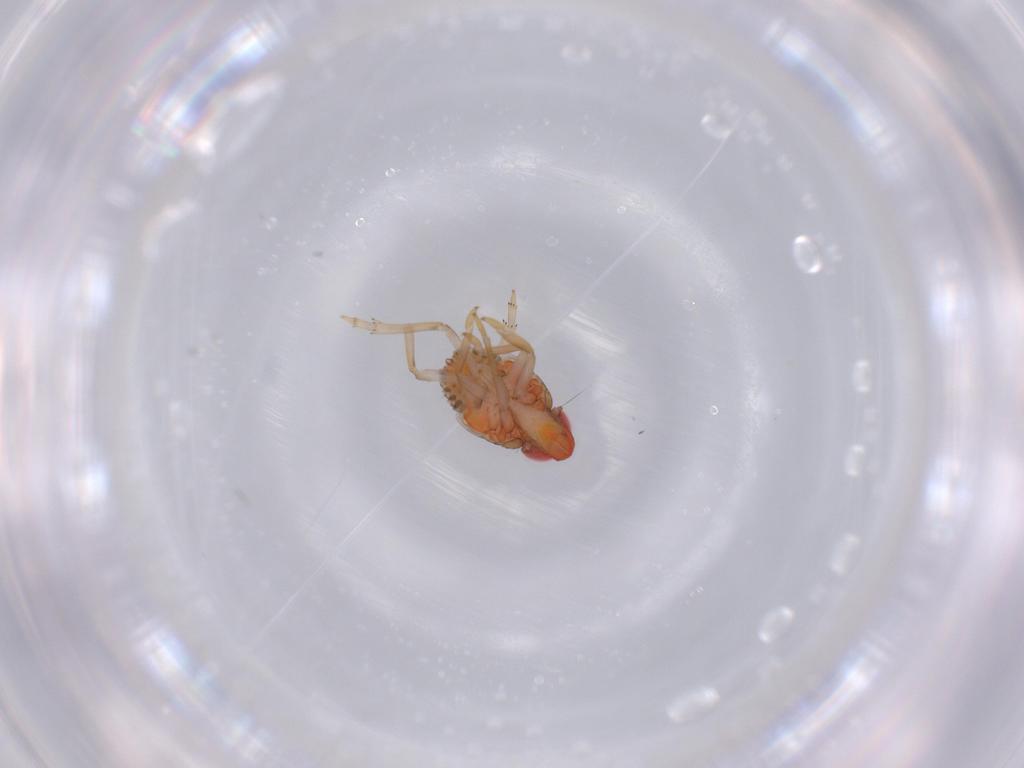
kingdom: Animalia
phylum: Arthropoda
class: Insecta
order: Hemiptera
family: Fulgoroidea_incertae_sedis
